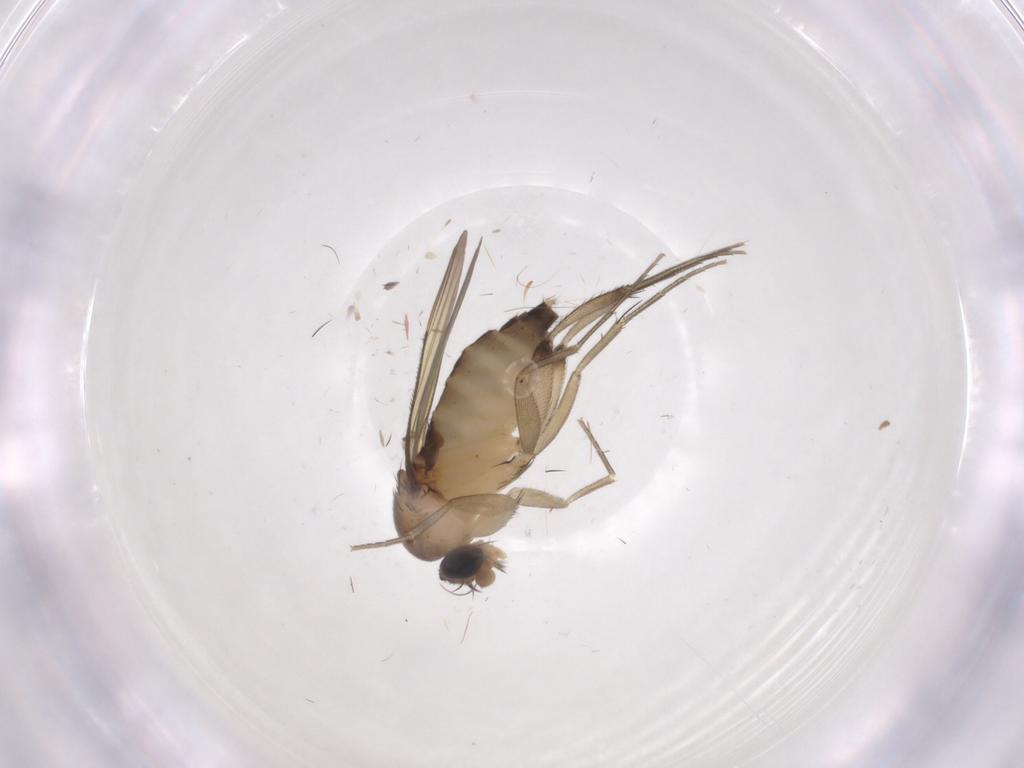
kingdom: Animalia
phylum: Arthropoda
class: Insecta
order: Diptera
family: Phoridae
